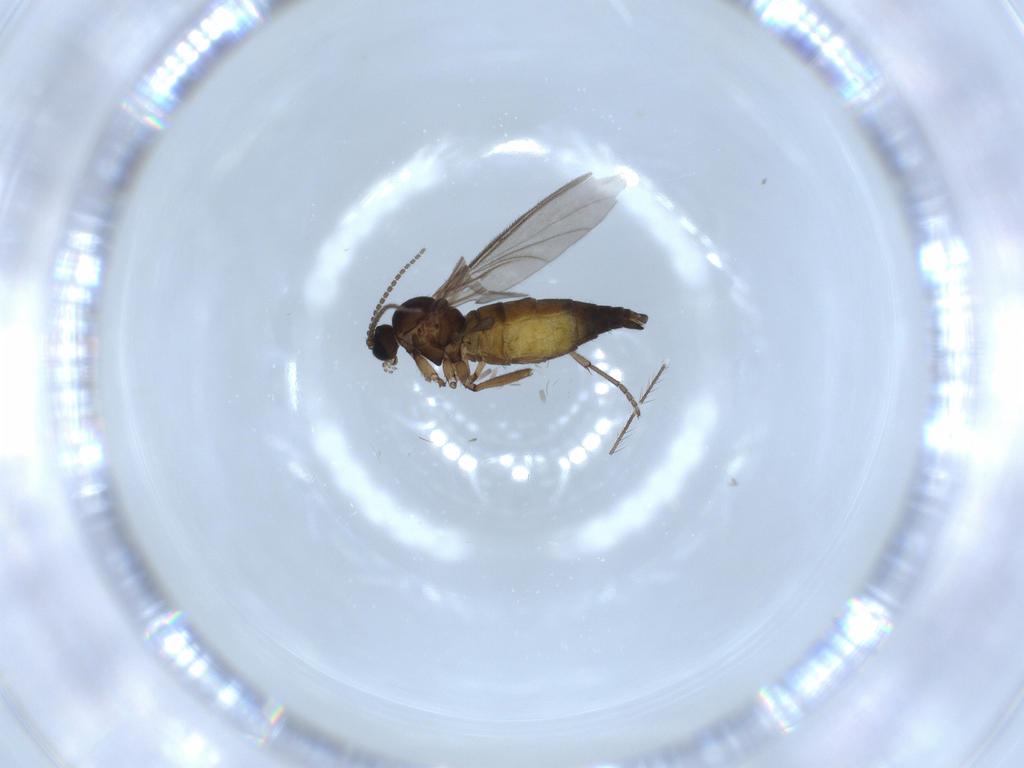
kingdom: Animalia
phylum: Arthropoda
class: Insecta
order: Diptera
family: Sciaridae
